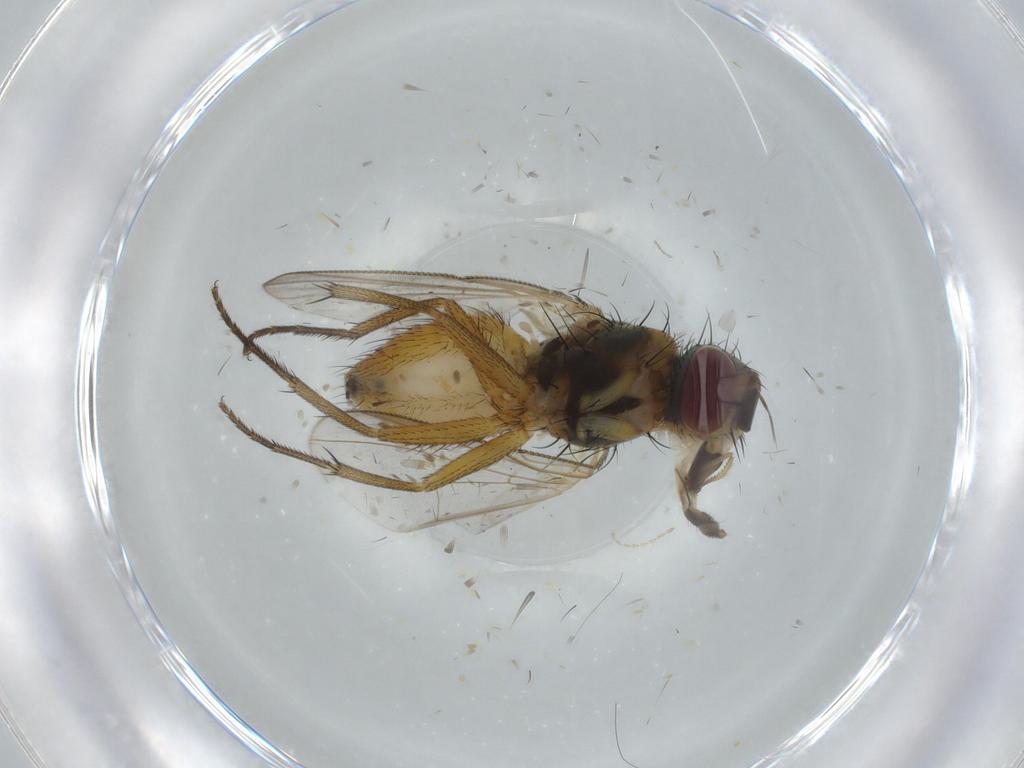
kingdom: Animalia
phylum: Arthropoda
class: Insecta
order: Diptera
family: Muscidae
